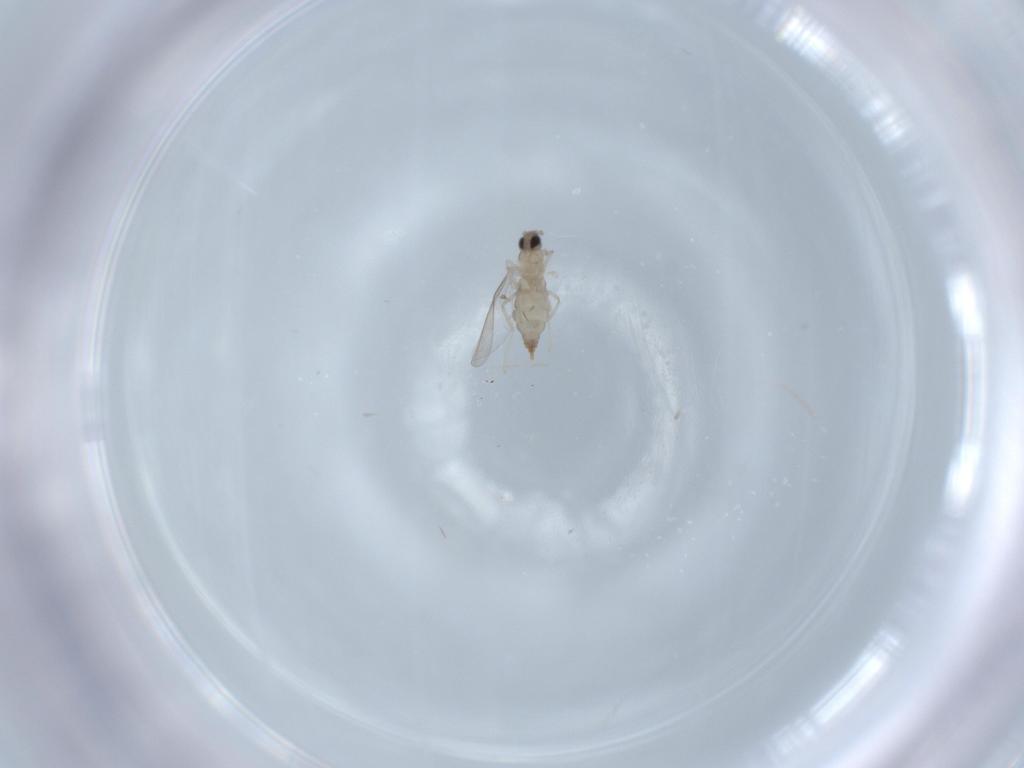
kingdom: Animalia
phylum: Arthropoda
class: Insecta
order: Diptera
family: Cecidomyiidae
